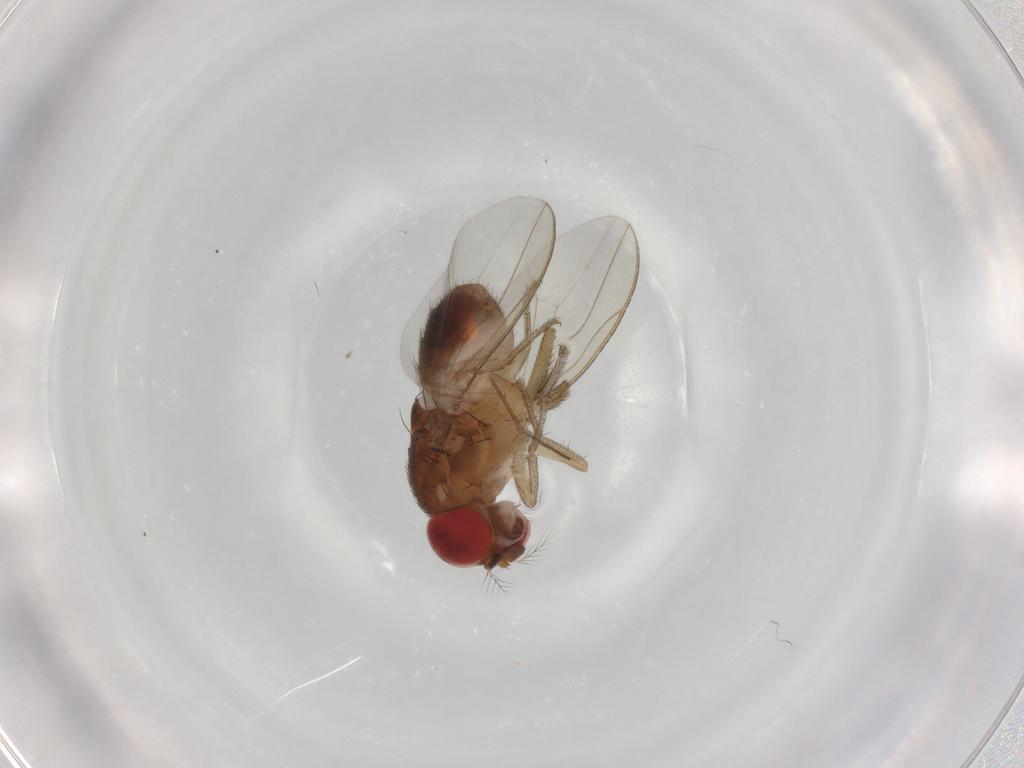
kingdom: Animalia
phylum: Arthropoda
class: Insecta
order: Diptera
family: Drosophilidae
